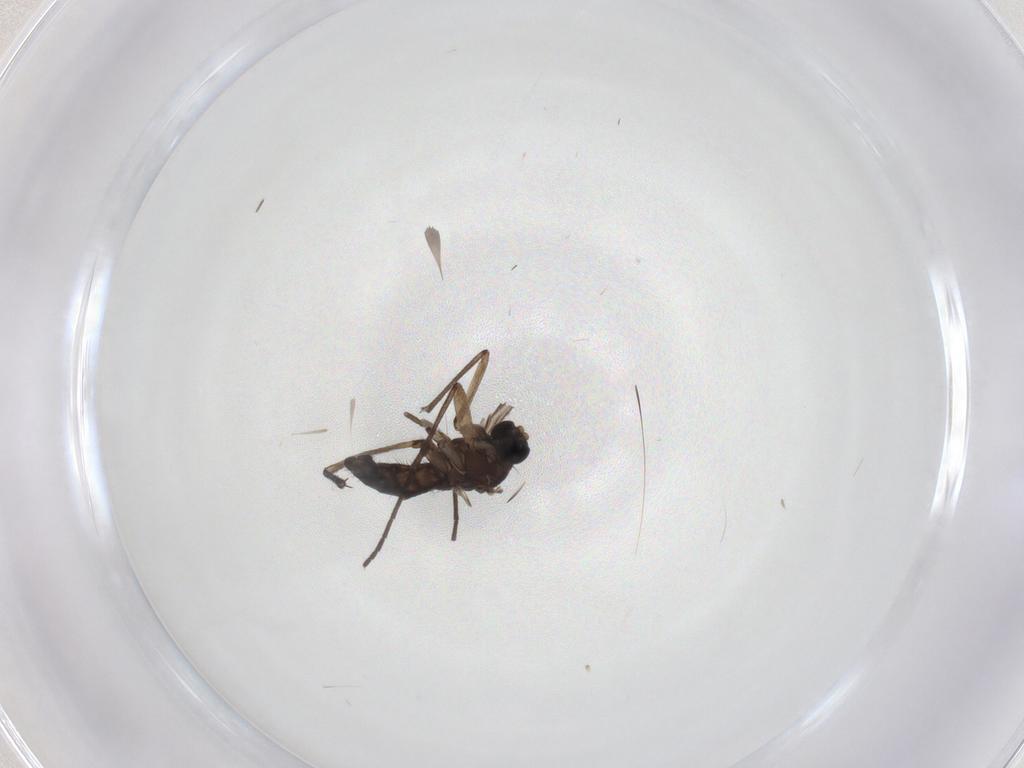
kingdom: Animalia
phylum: Arthropoda
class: Insecta
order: Diptera
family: Sciaridae
